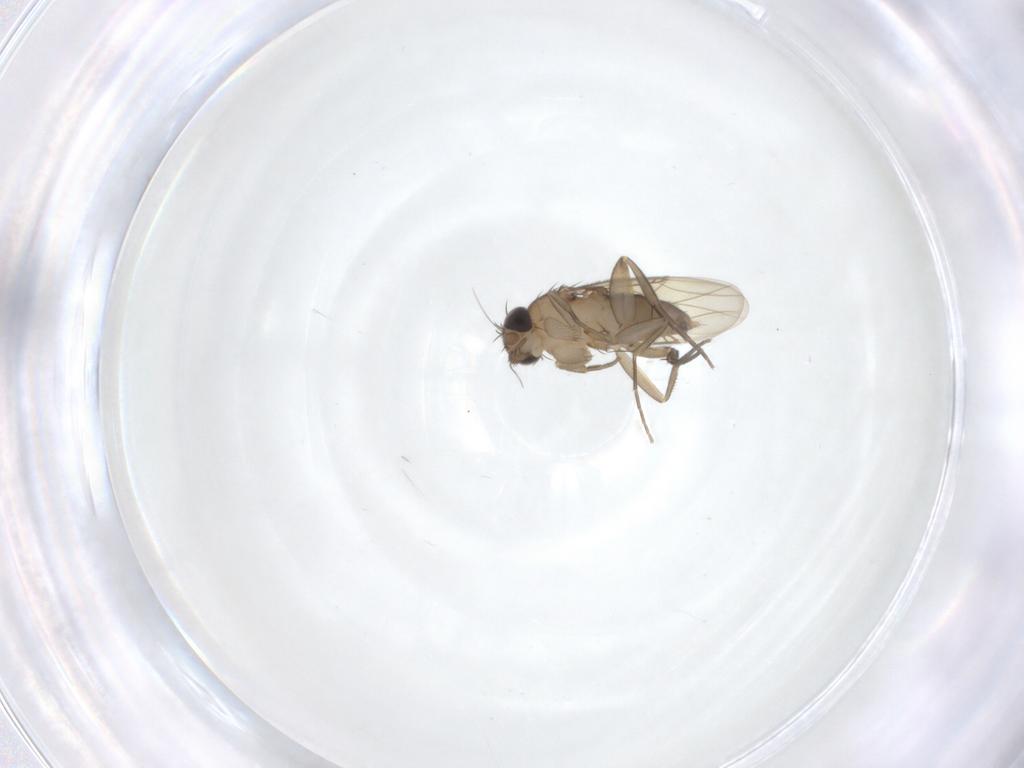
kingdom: Animalia
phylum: Arthropoda
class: Insecta
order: Diptera
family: Phoridae
